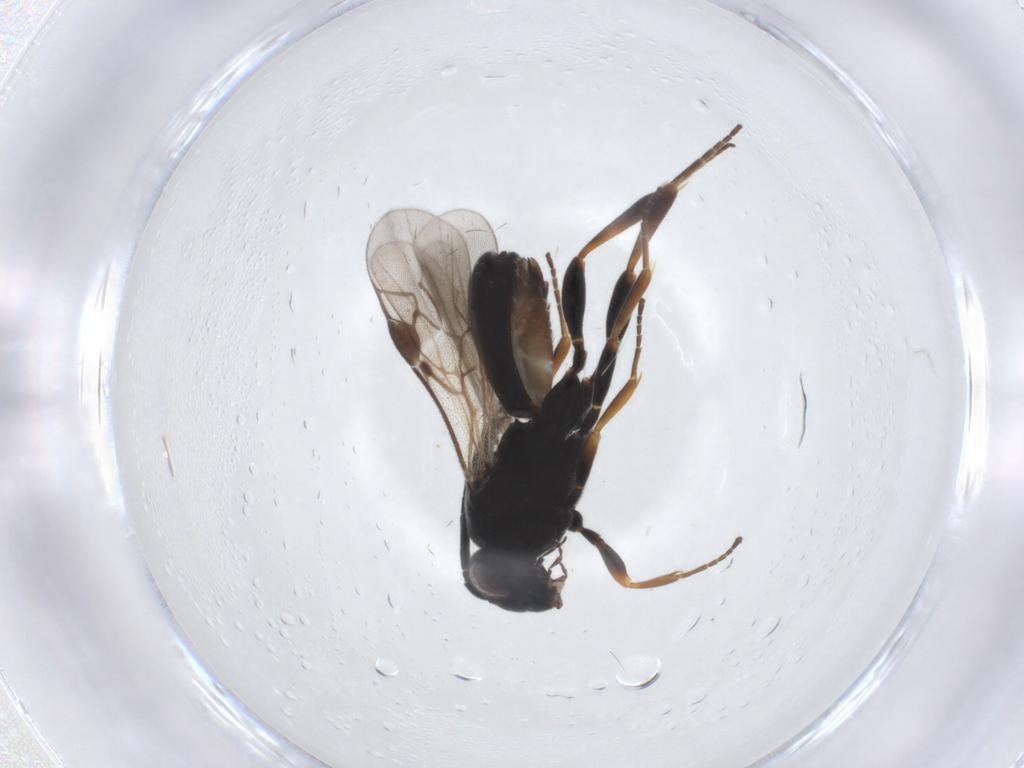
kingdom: Animalia
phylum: Arthropoda
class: Insecta
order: Hymenoptera
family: Braconidae
